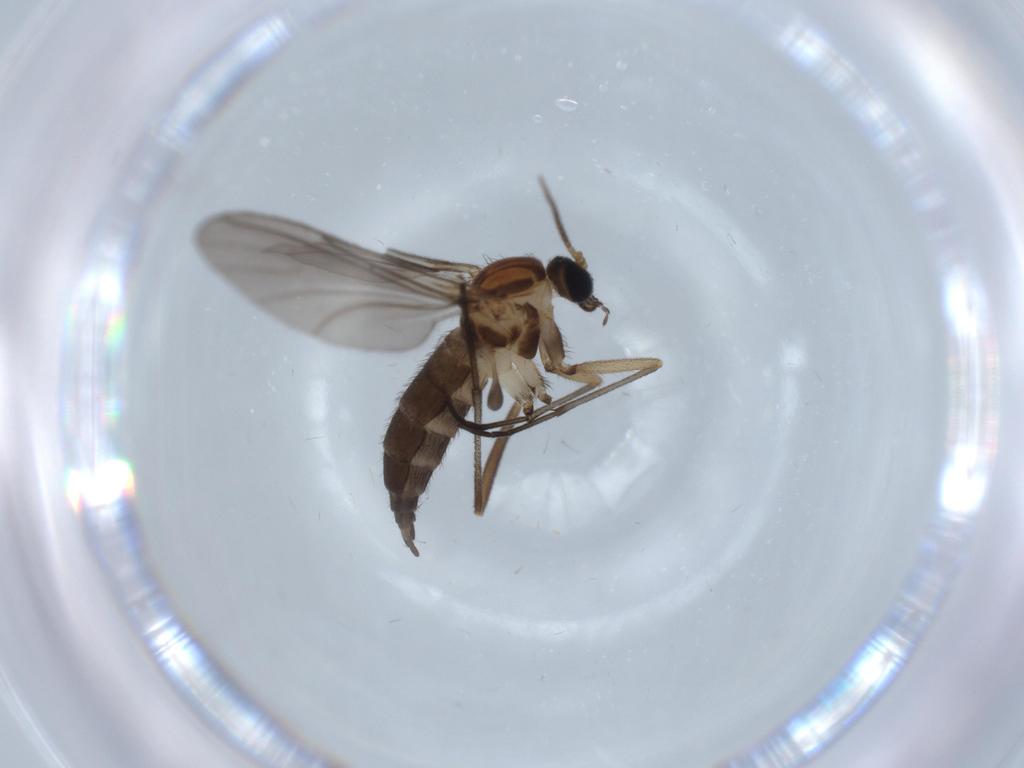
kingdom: Animalia
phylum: Arthropoda
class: Insecta
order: Diptera
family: Sciaridae
